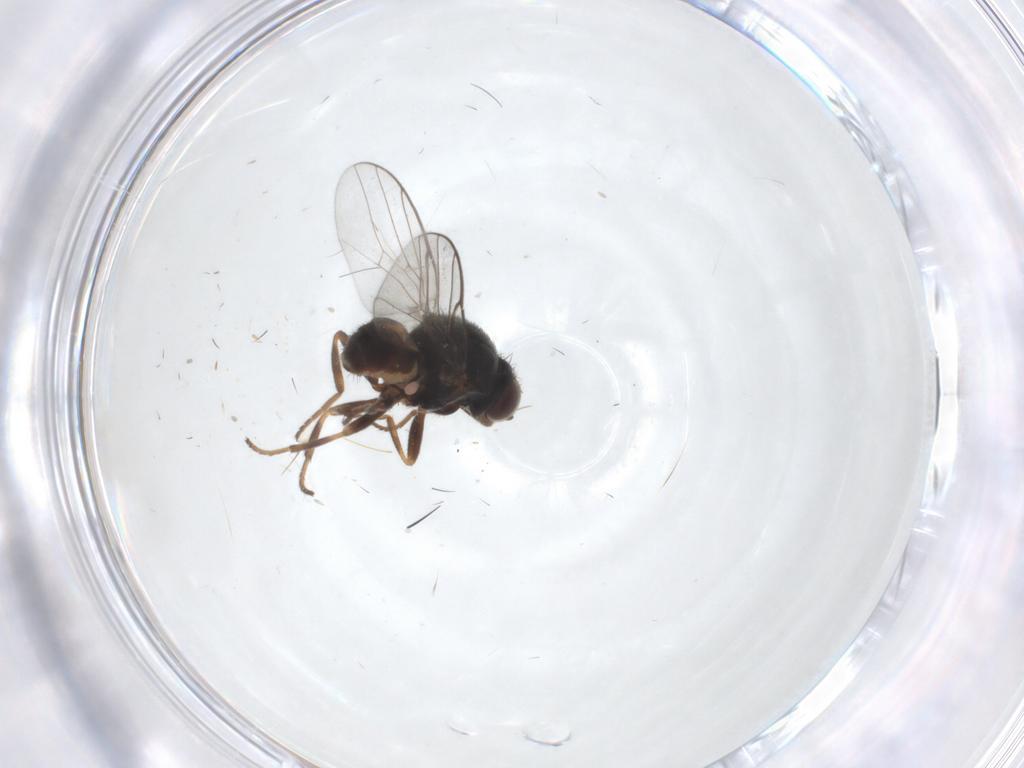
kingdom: Animalia
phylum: Arthropoda
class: Insecta
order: Diptera
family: Chloropidae
